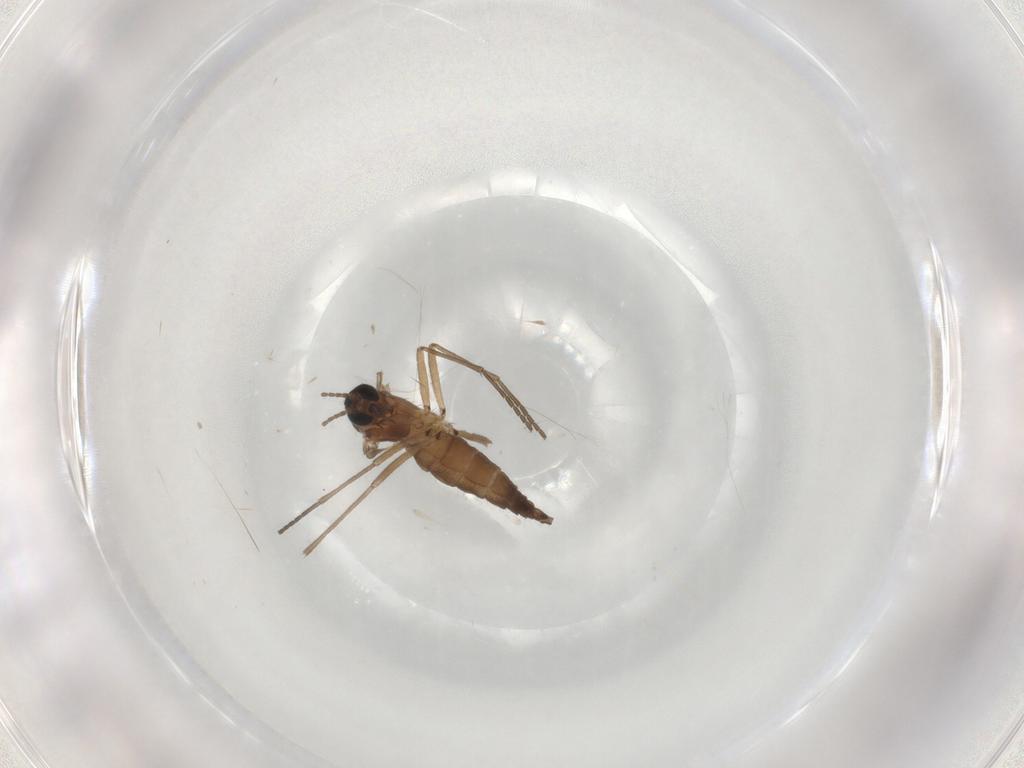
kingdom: Animalia
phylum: Arthropoda
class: Insecta
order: Diptera
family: Sciaridae
